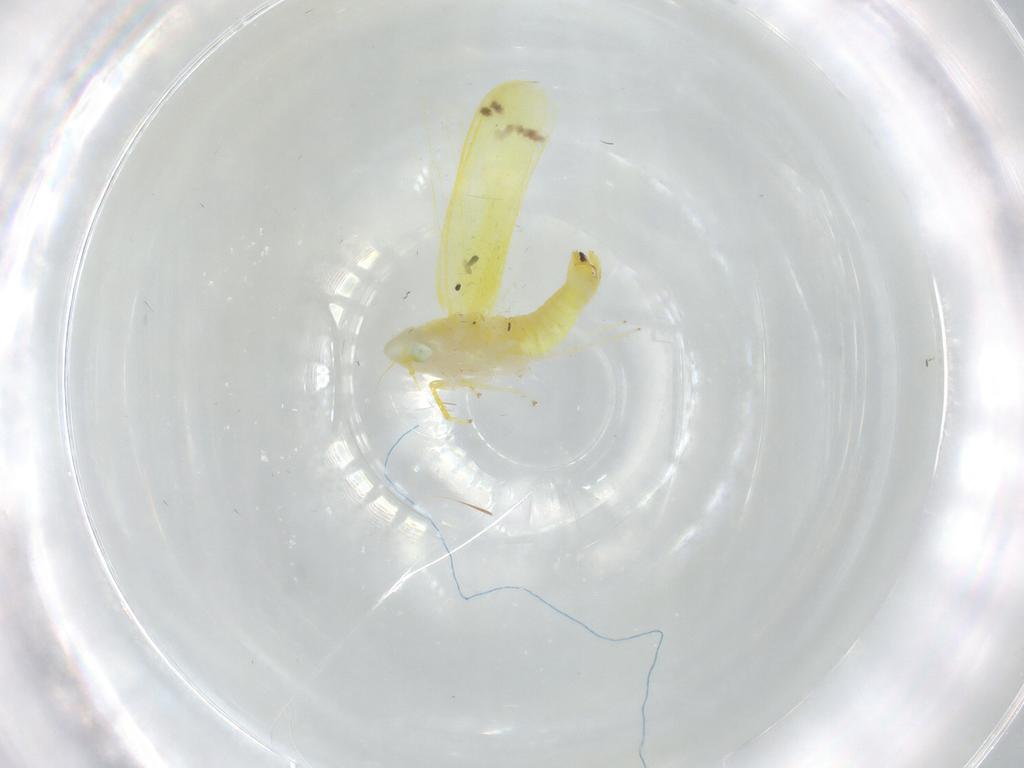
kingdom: Animalia
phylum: Arthropoda
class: Insecta
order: Hemiptera
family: Cicadellidae
